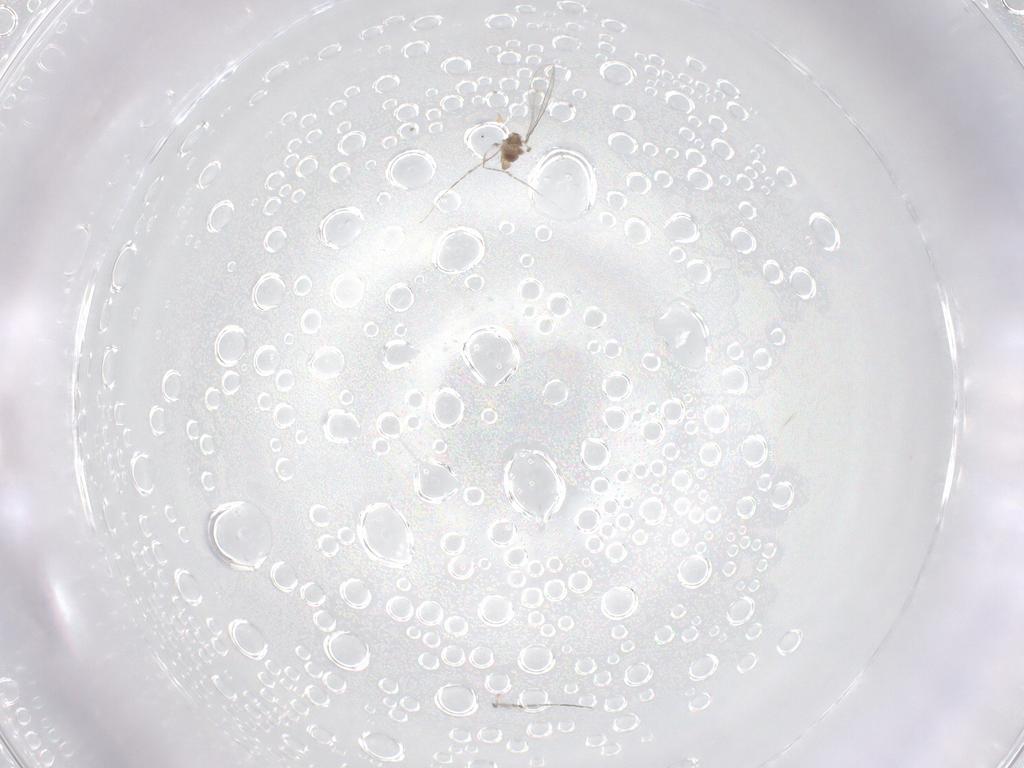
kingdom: Animalia
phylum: Arthropoda
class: Insecta
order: Diptera
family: Cecidomyiidae
